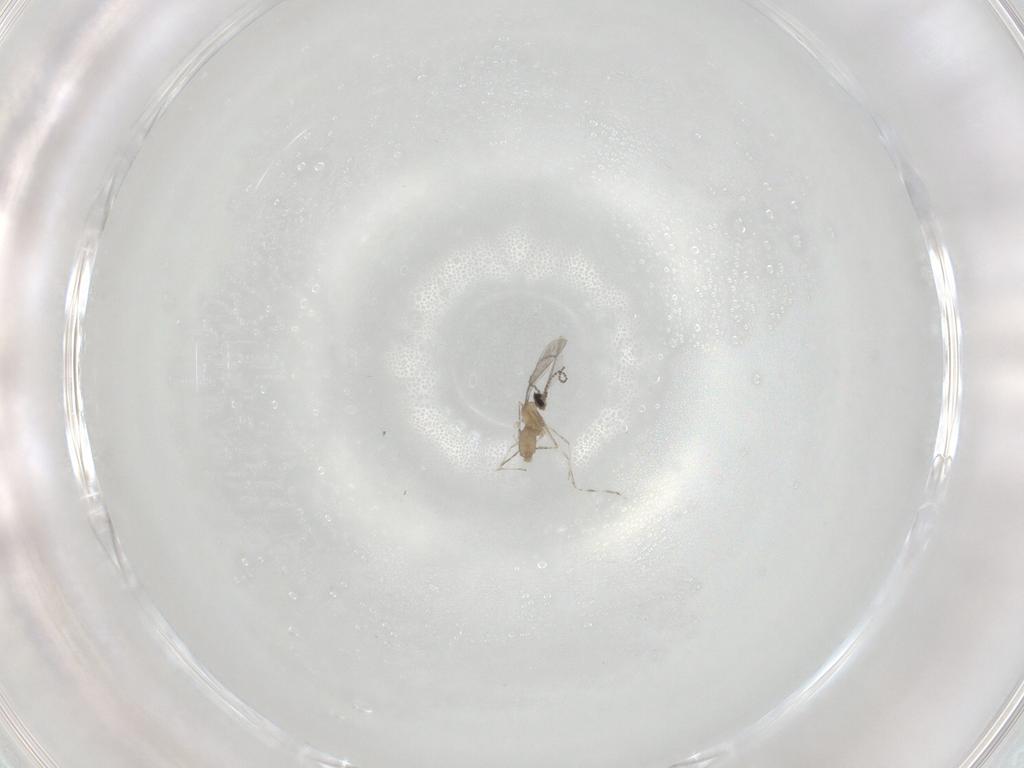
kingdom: Animalia
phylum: Arthropoda
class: Insecta
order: Diptera
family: Cecidomyiidae
